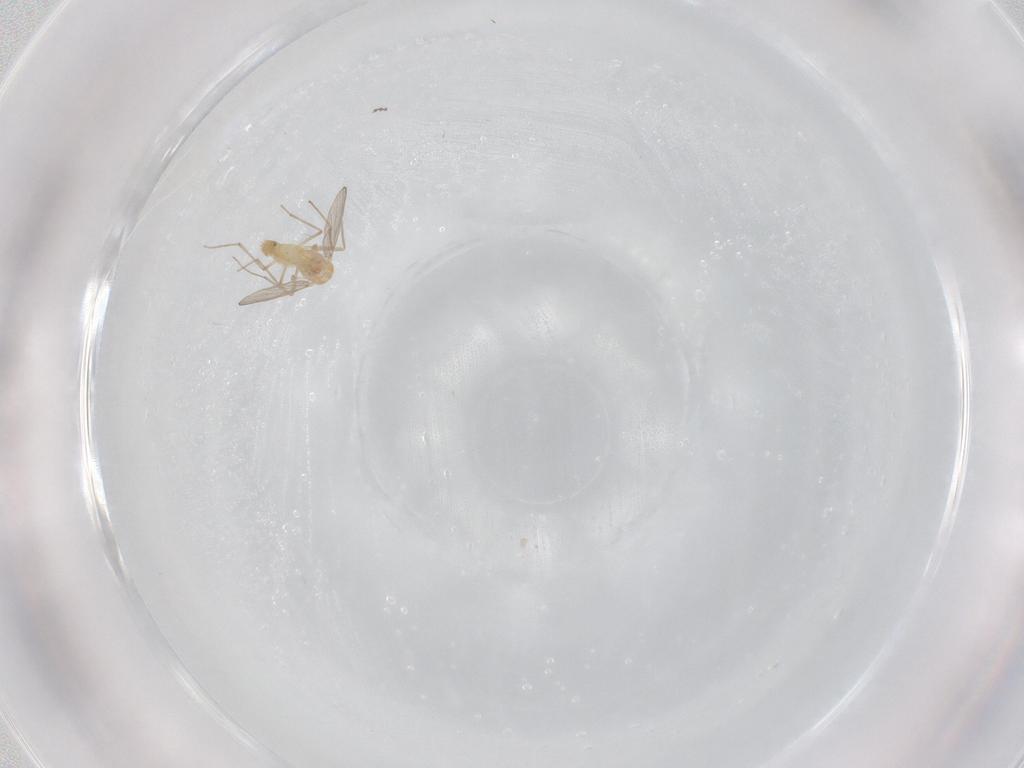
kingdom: Animalia
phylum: Arthropoda
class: Insecta
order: Diptera
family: Chironomidae
